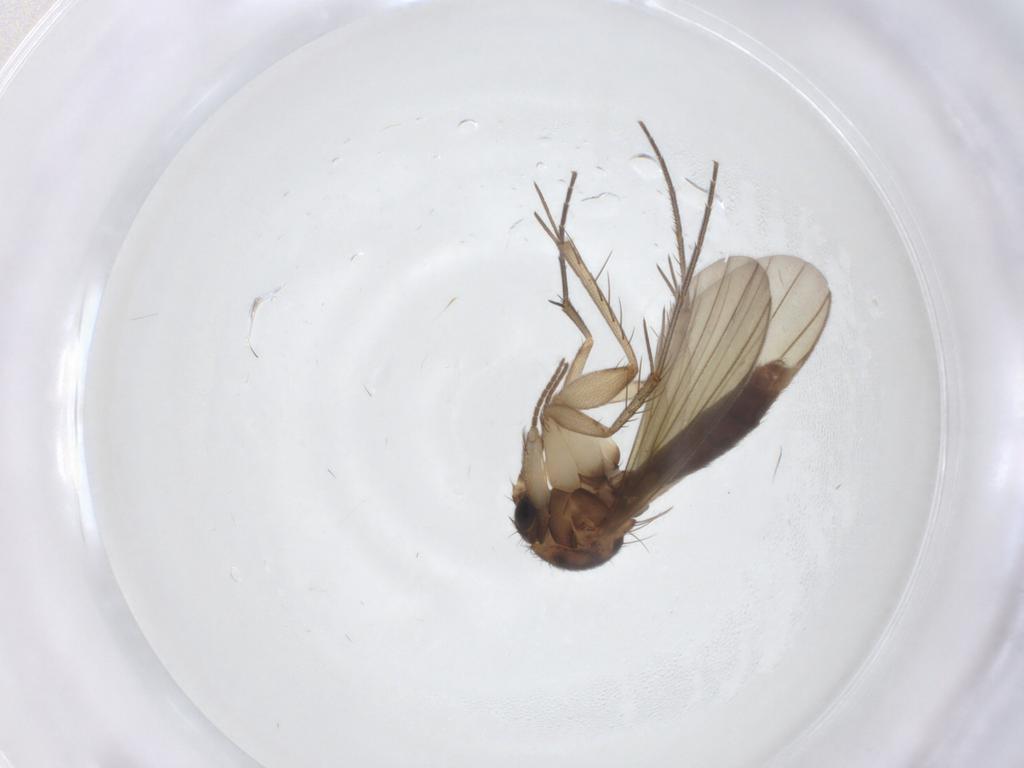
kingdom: Animalia
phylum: Arthropoda
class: Insecta
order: Diptera
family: Mycetophilidae
